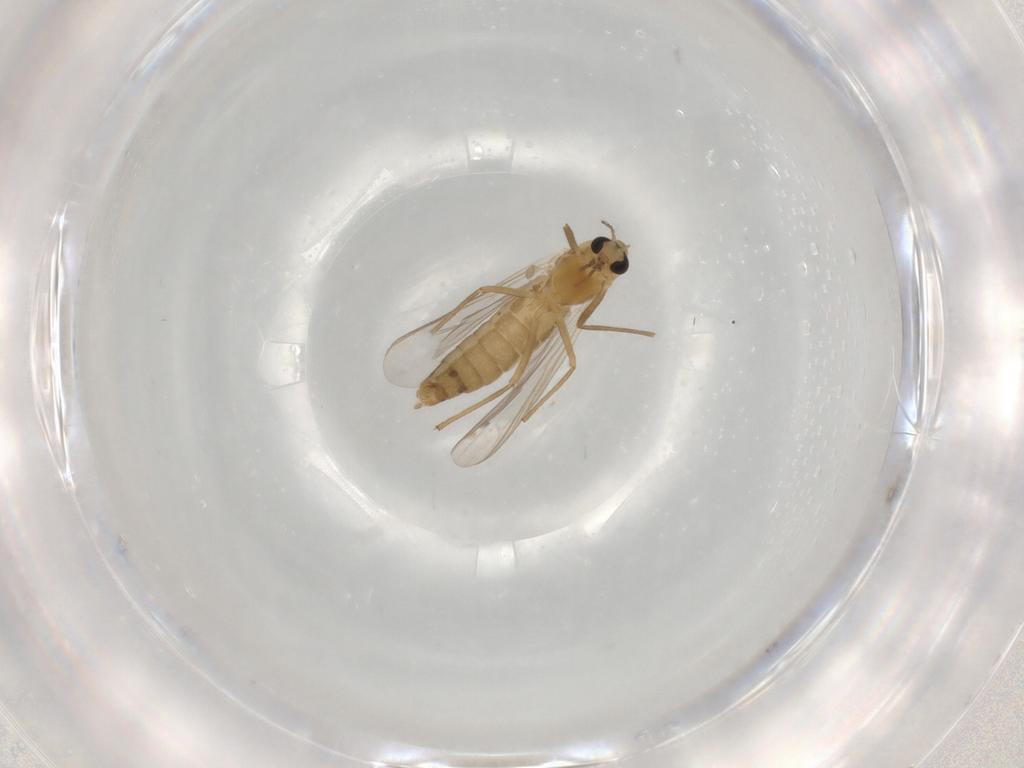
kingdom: Animalia
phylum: Arthropoda
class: Insecta
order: Diptera
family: Chironomidae
